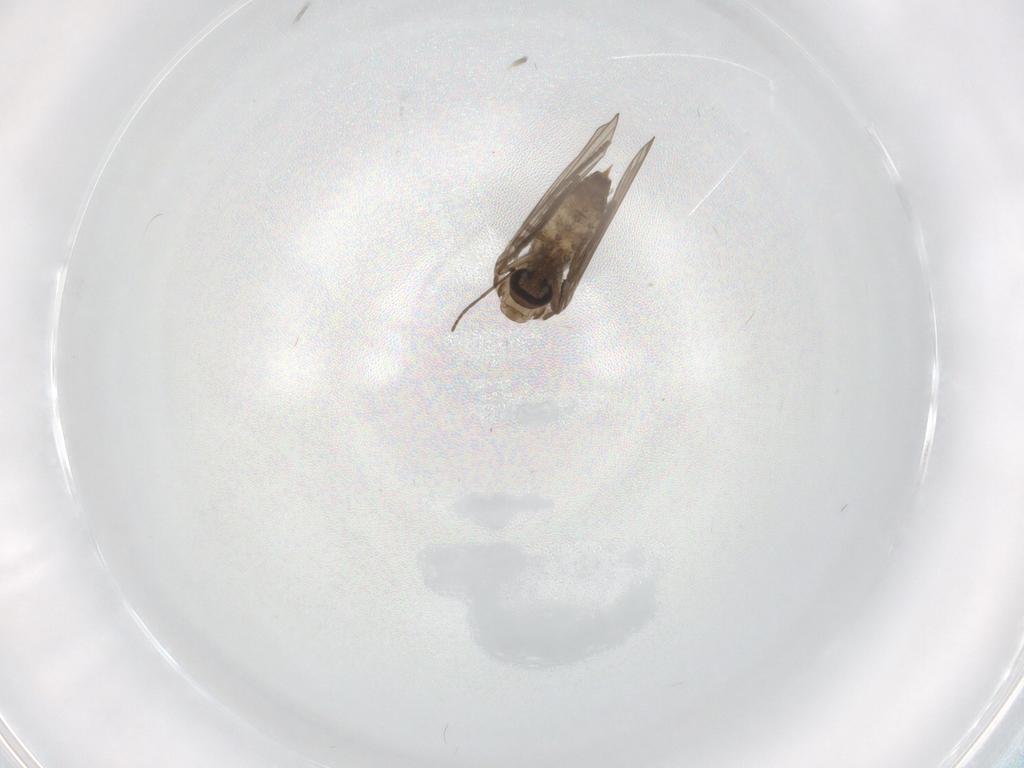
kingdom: Animalia
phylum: Arthropoda
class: Insecta
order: Diptera
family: Psychodidae
